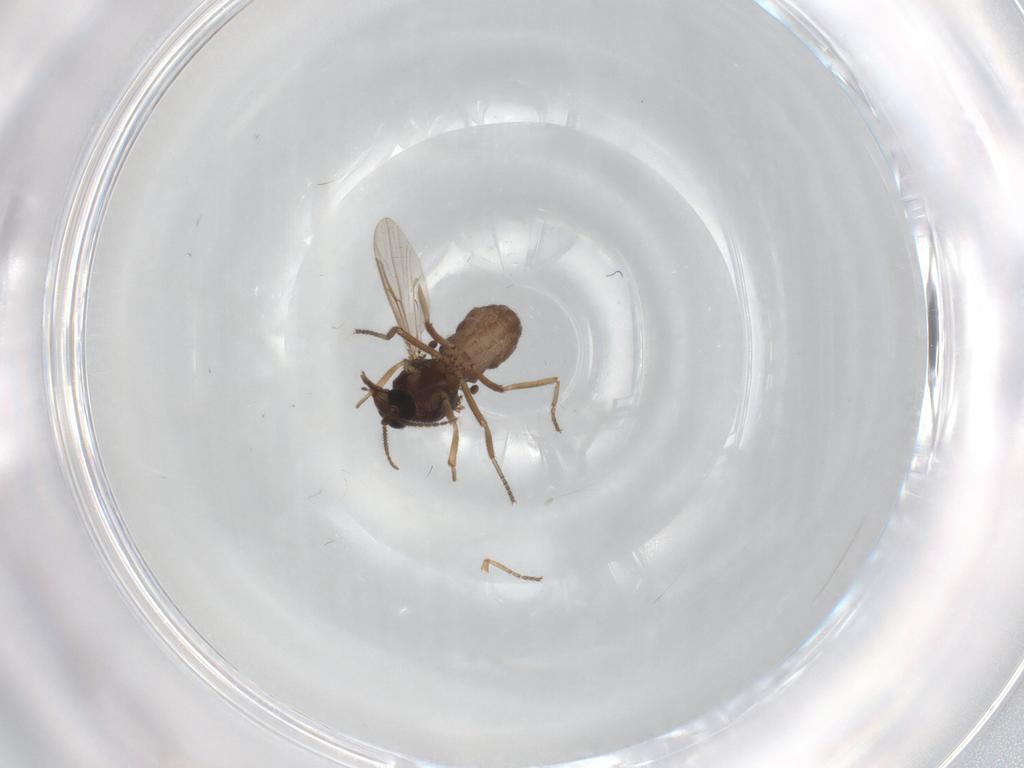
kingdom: Animalia
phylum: Arthropoda
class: Insecta
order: Diptera
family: Ceratopogonidae
